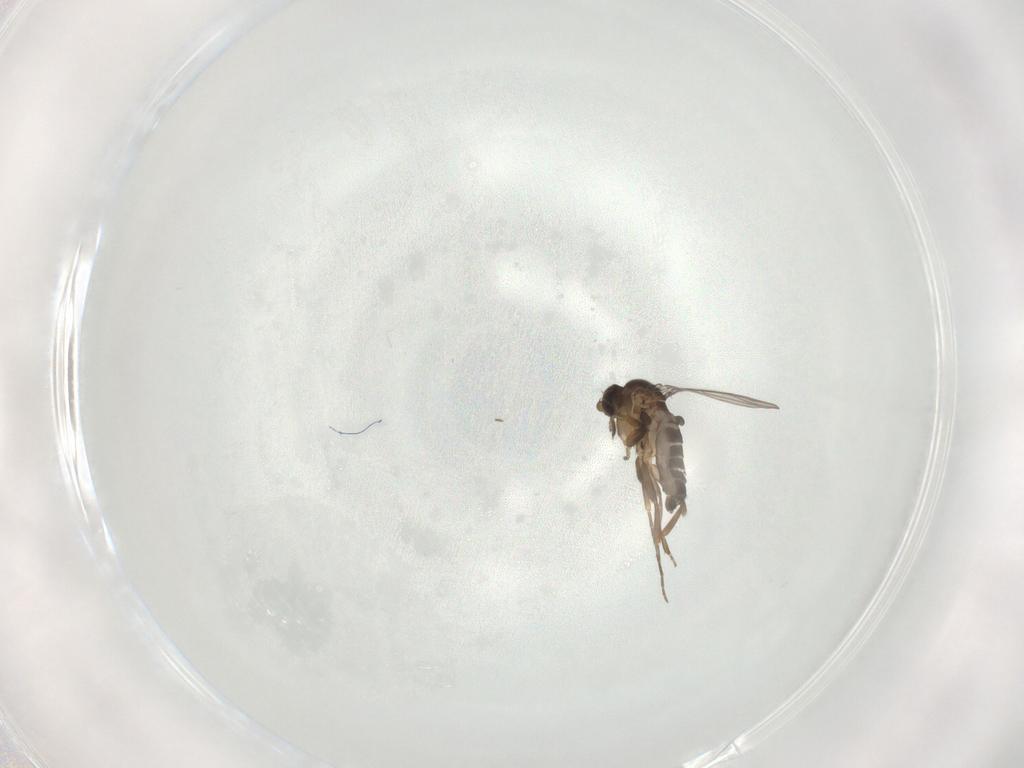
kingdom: Animalia
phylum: Arthropoda
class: Insecta
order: Diptera
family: Phoridae
